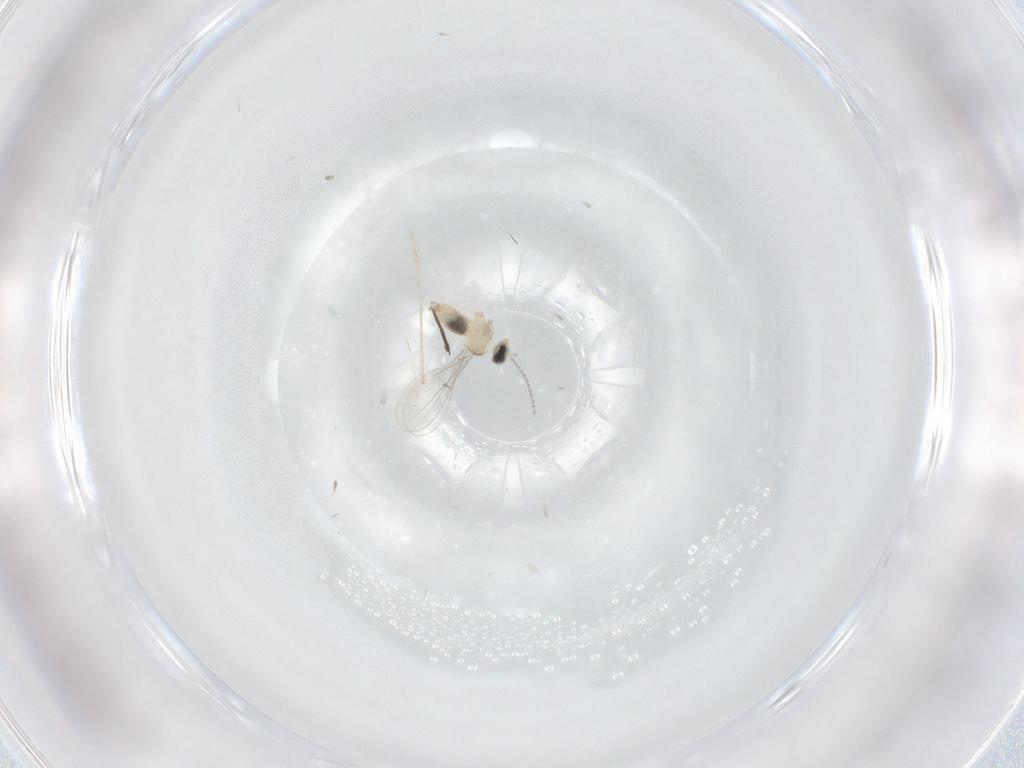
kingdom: Animalia
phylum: Arthropoda
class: Insecta
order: Diptera
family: Cecidomyiidae
